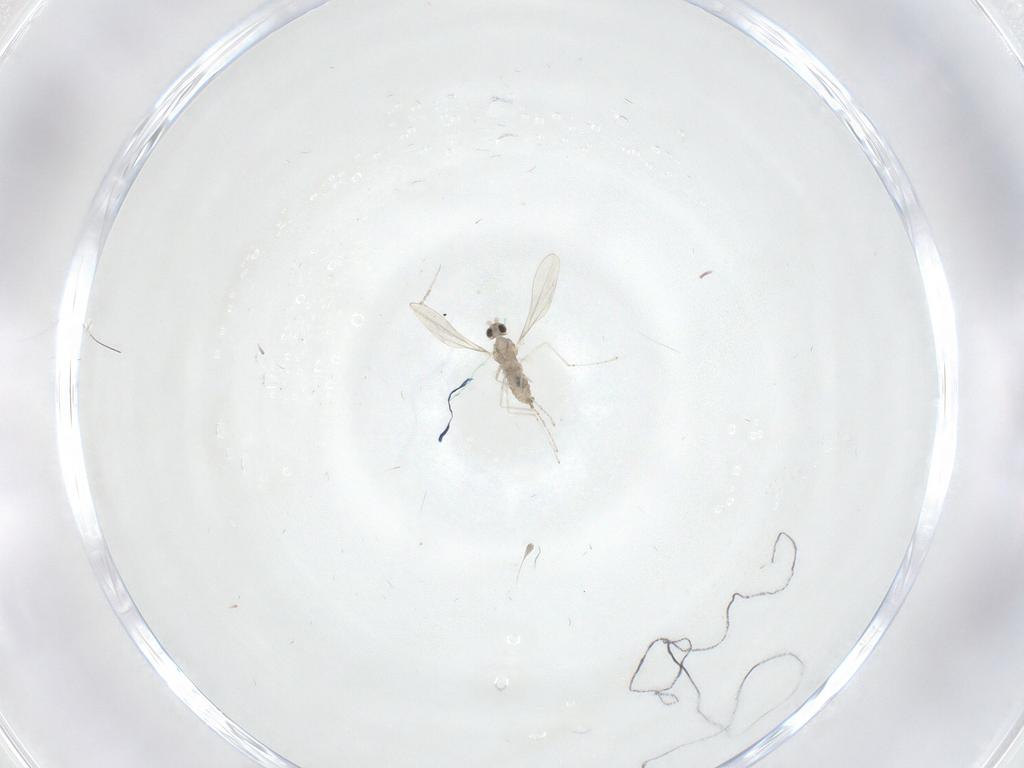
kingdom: Animalia
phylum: Arthropoda
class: Insecta
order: Diptera
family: Cecidomyiidae
